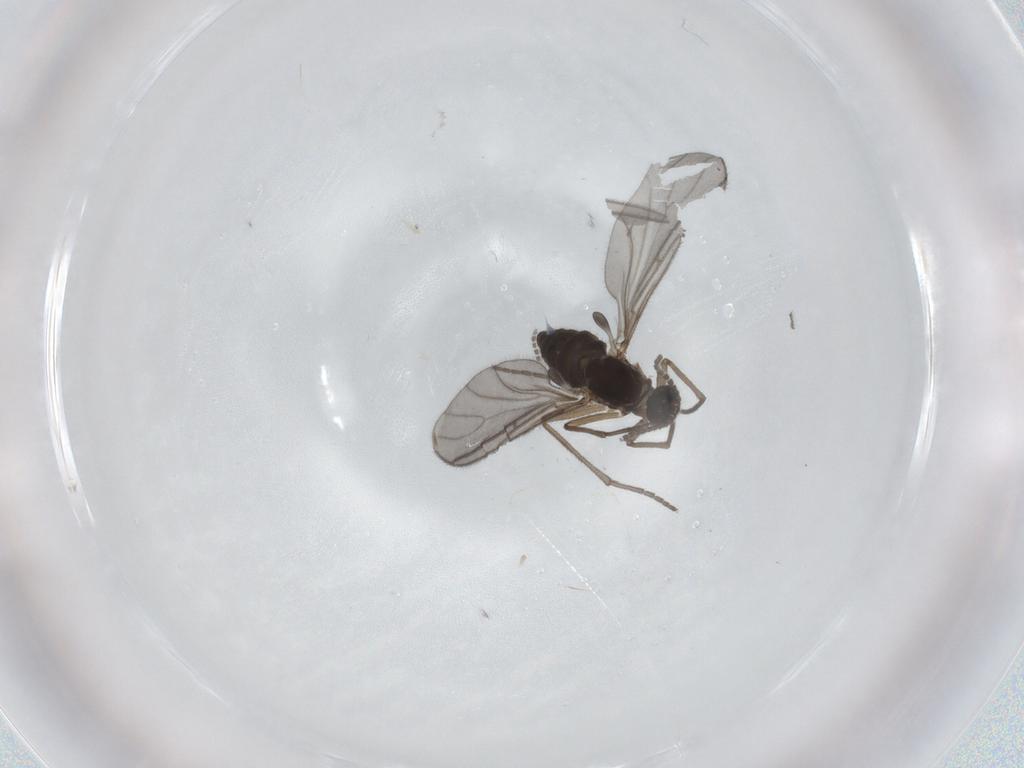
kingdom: Animalia
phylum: Arthropoda
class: Insecta
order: Diptera
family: Sciaridae
